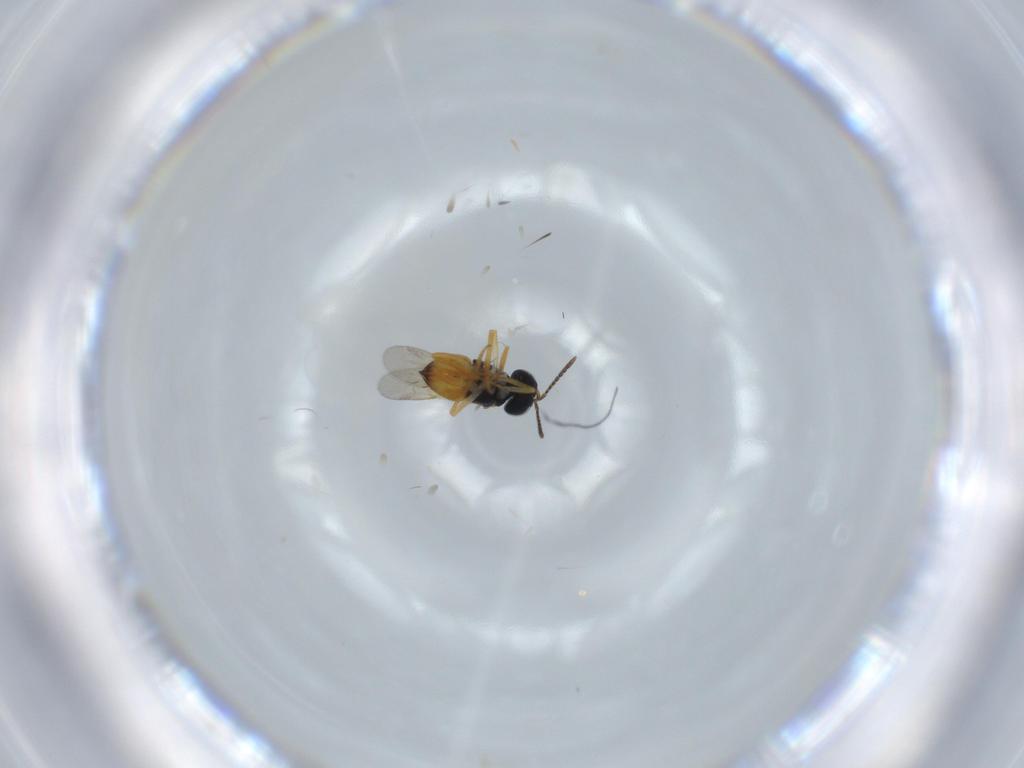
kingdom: Animalia
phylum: Arthropoda
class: Insecta
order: Hymenoptera
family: Encyrtidae
